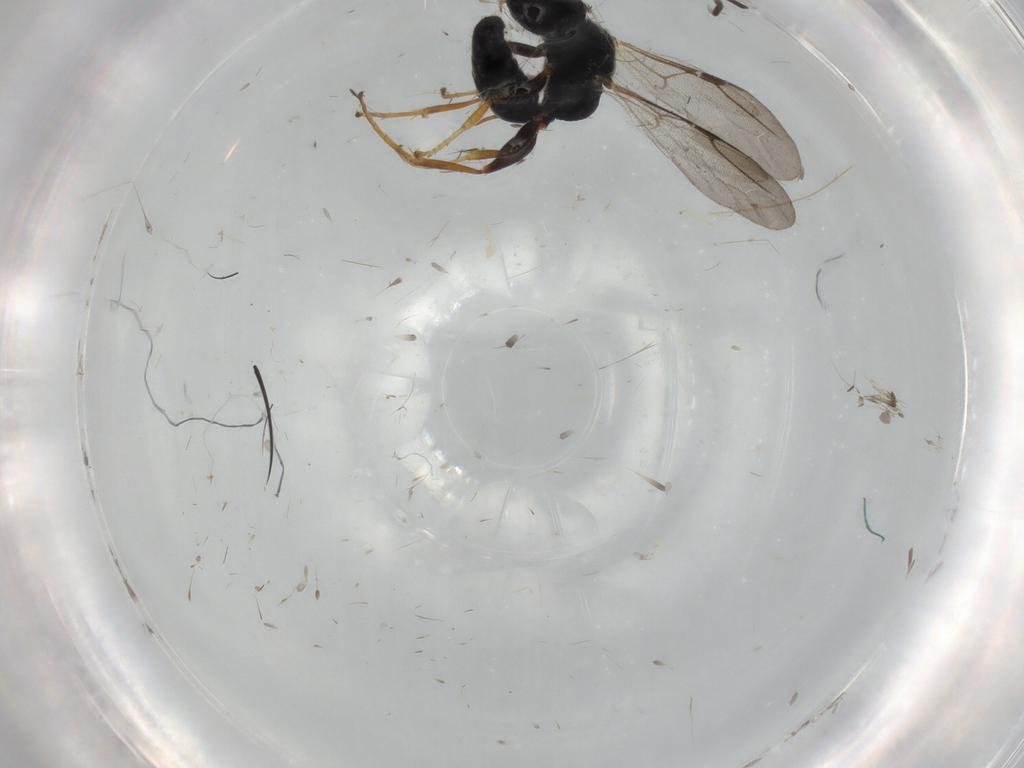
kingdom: Animalia
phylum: Arthropoda
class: Insecta
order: Hymenoptera
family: Bethylidae
